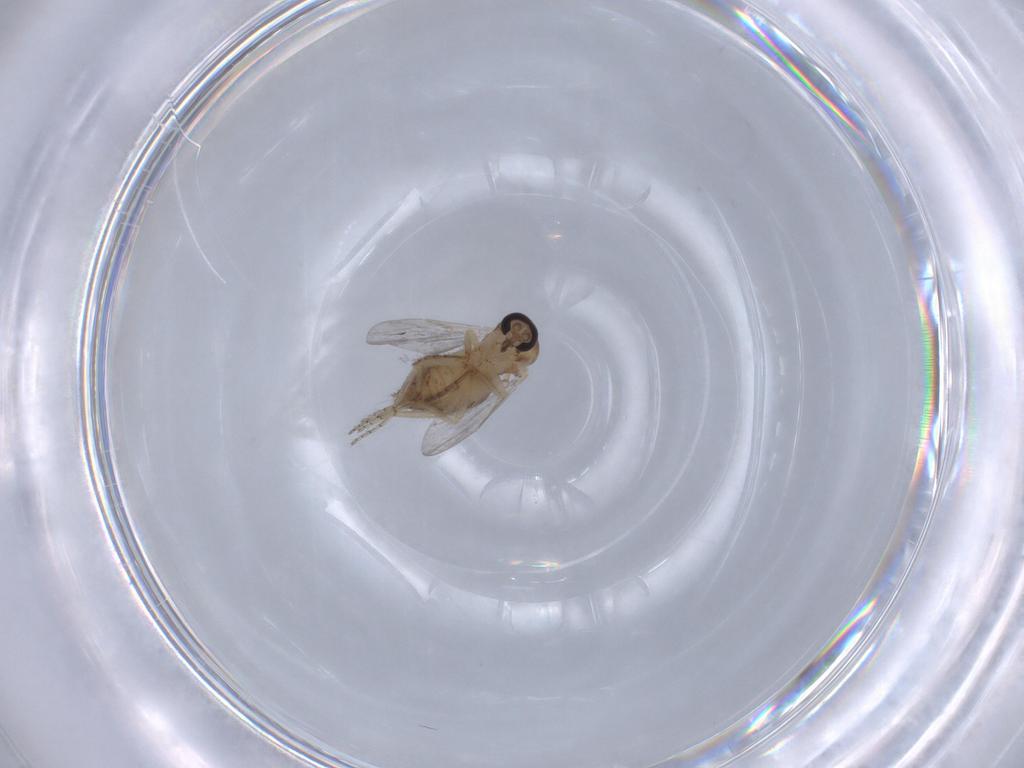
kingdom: Animalia
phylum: Arthropoda
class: Insecta
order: Diptera
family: Ceratopogonidae
